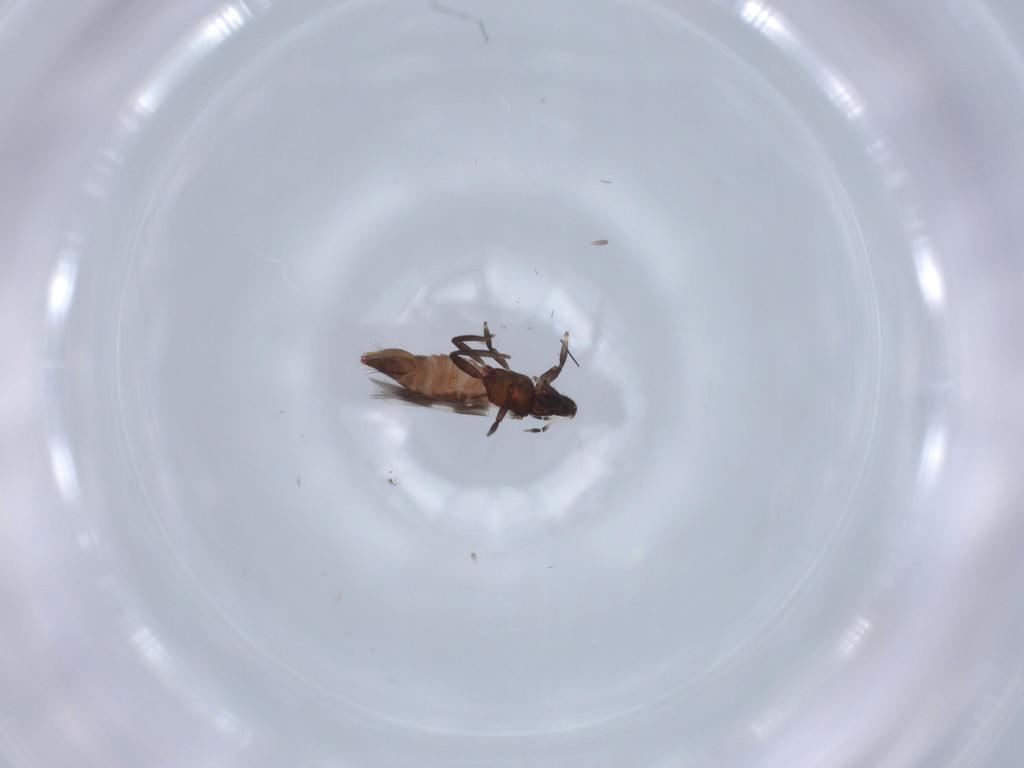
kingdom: Animalia
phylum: Arthropoda
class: Insecta
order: Thysanoptera
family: Aeolothripidae
